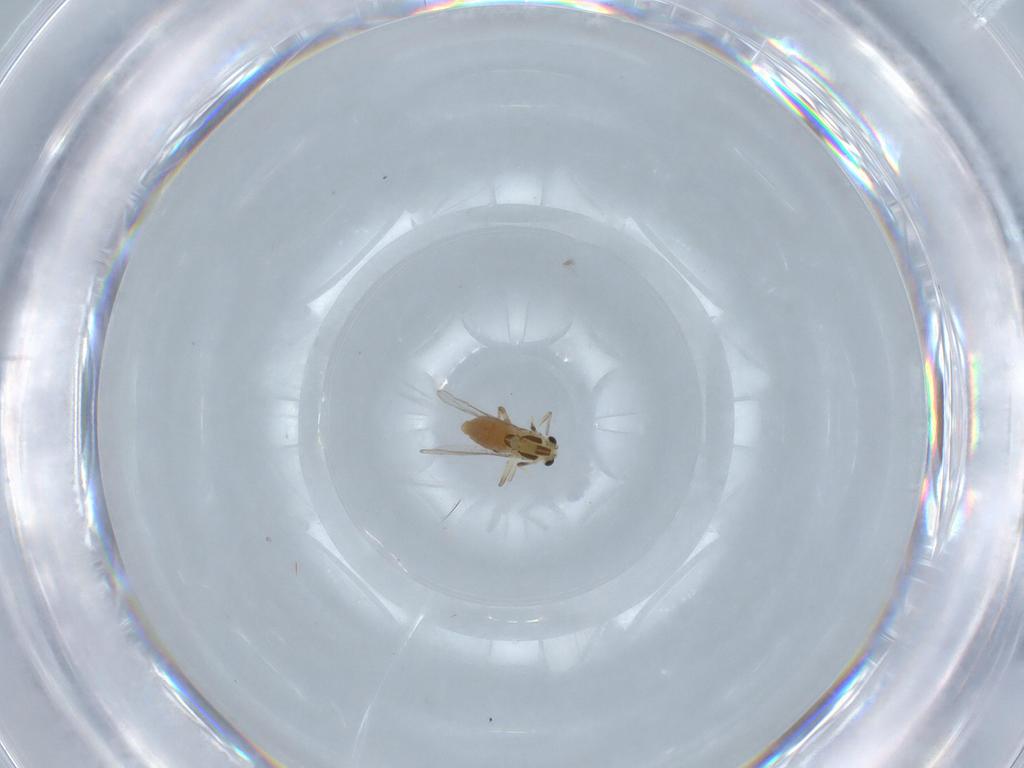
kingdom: Animalia
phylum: Arthropoda
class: Insecta
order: Diptera
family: Chironomidae
